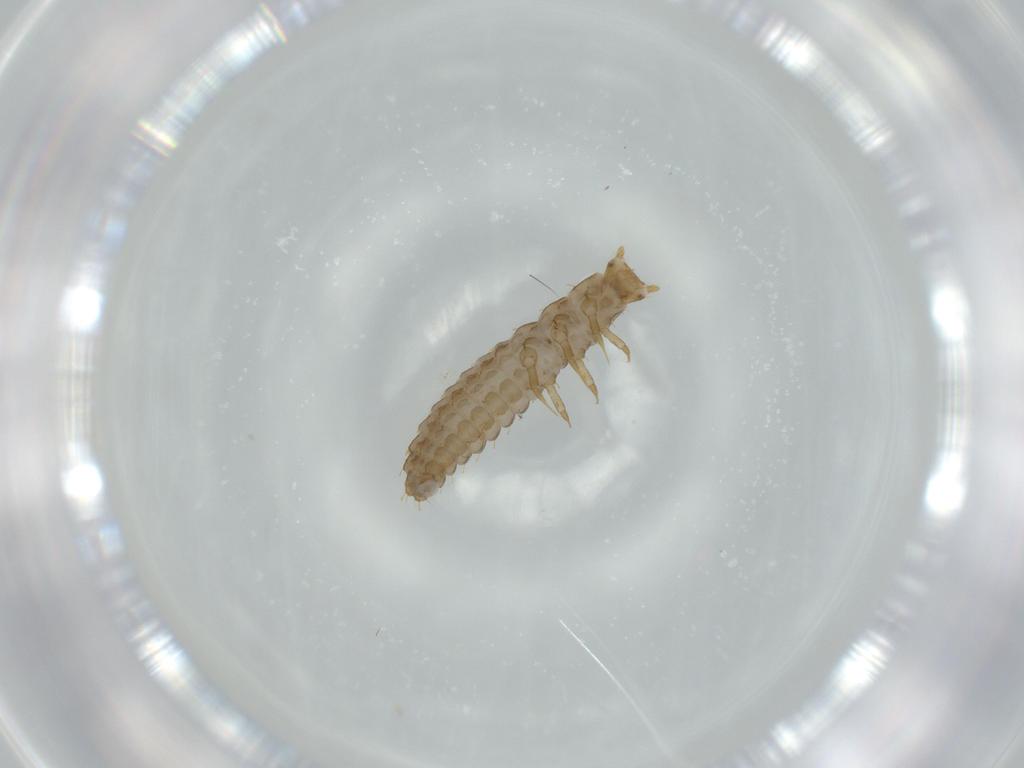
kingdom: Animalia
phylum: Arthropoda
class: Insecta
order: Coleoptera
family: Lycidae
